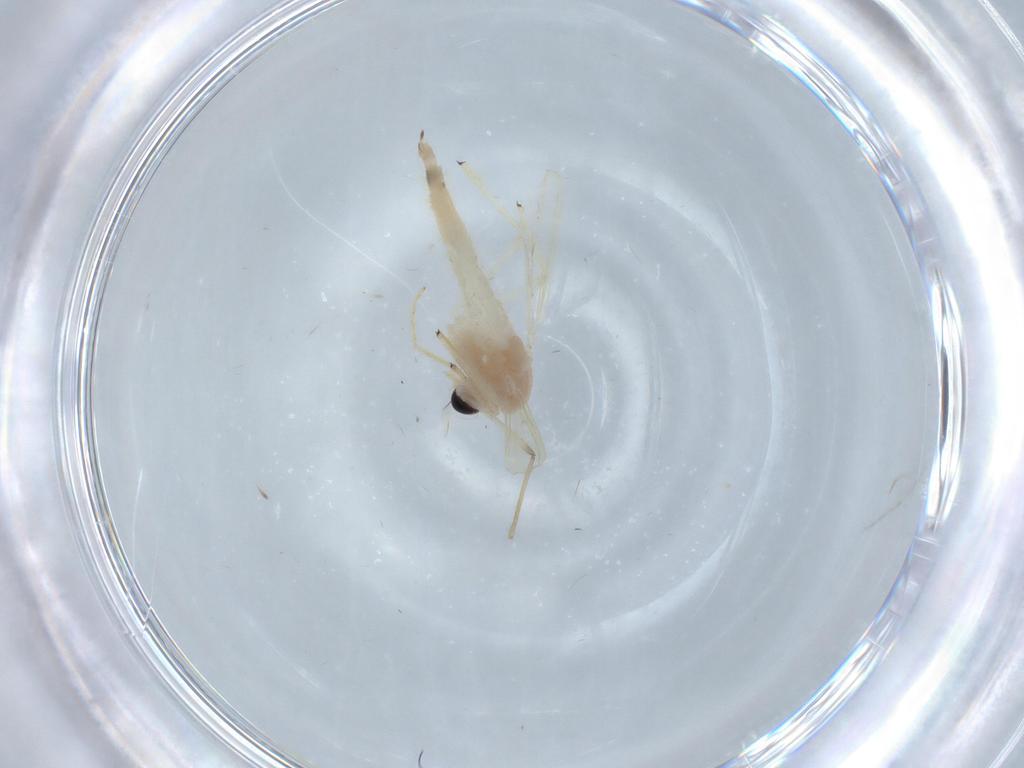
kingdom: Animalia
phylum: Arthropoda
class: Insecta
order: Diptera
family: Chironomidae
